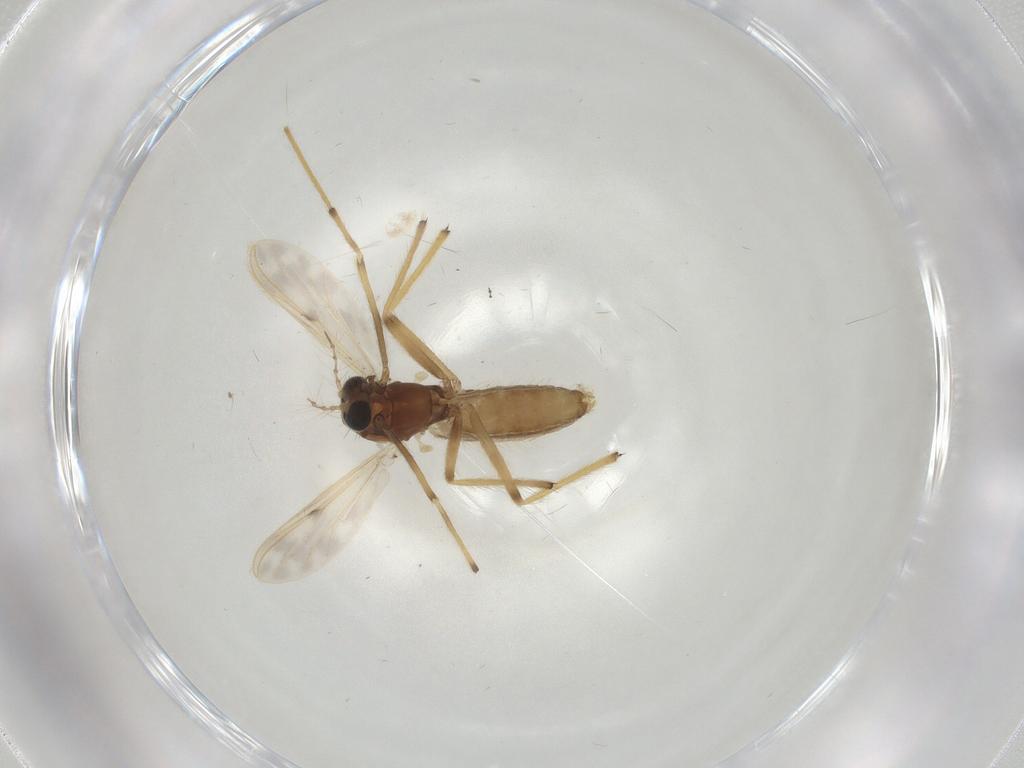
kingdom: Animalia
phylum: Arthropoda
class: Insecta
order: Diptera
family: Chironomidae
